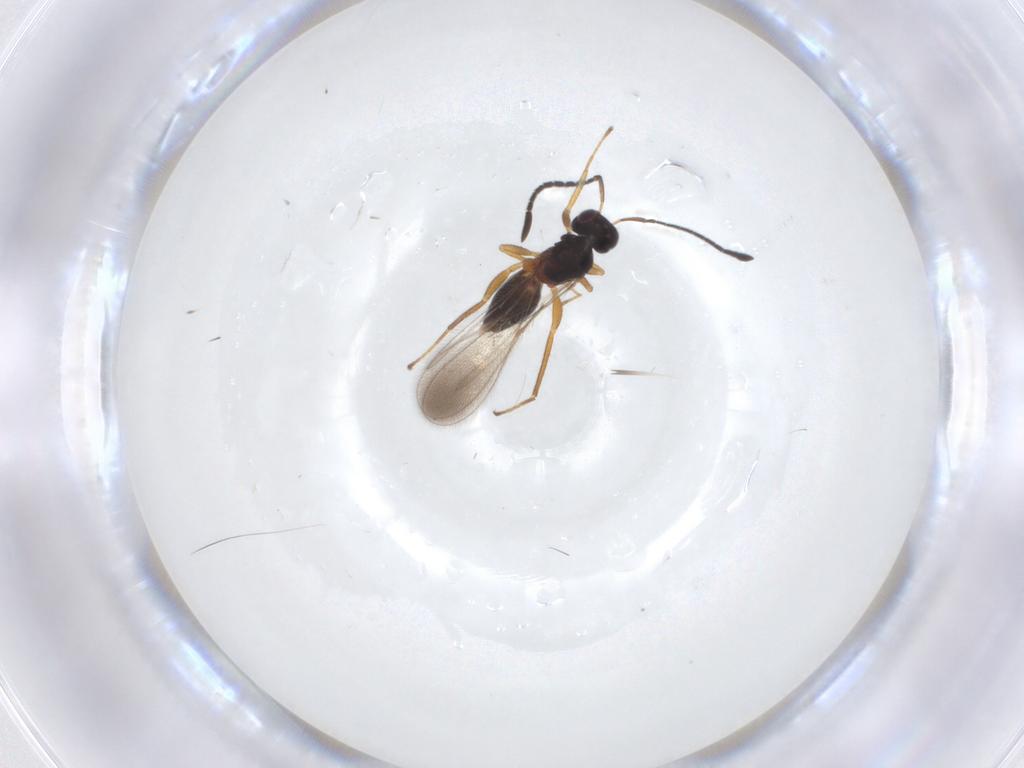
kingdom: Animalia
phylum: Arthropoda
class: Insecta
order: Hymenoptera
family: Mymaridae
